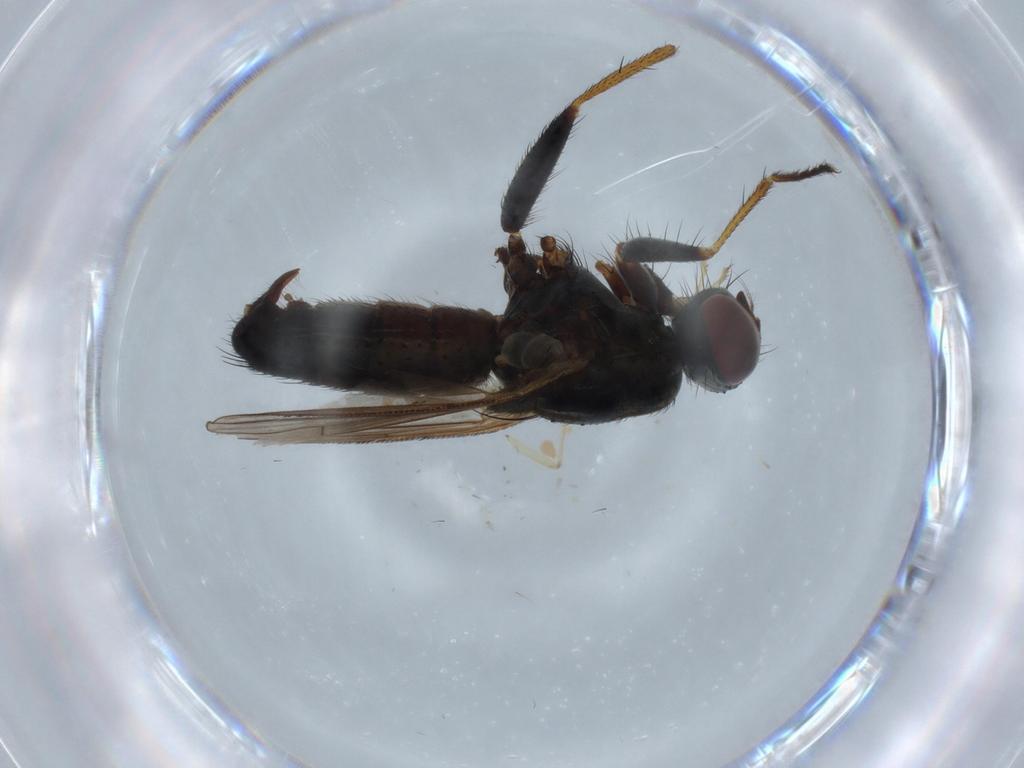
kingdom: Animalia
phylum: Arthropoda
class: Insecta
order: Diptera
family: Muscidae
